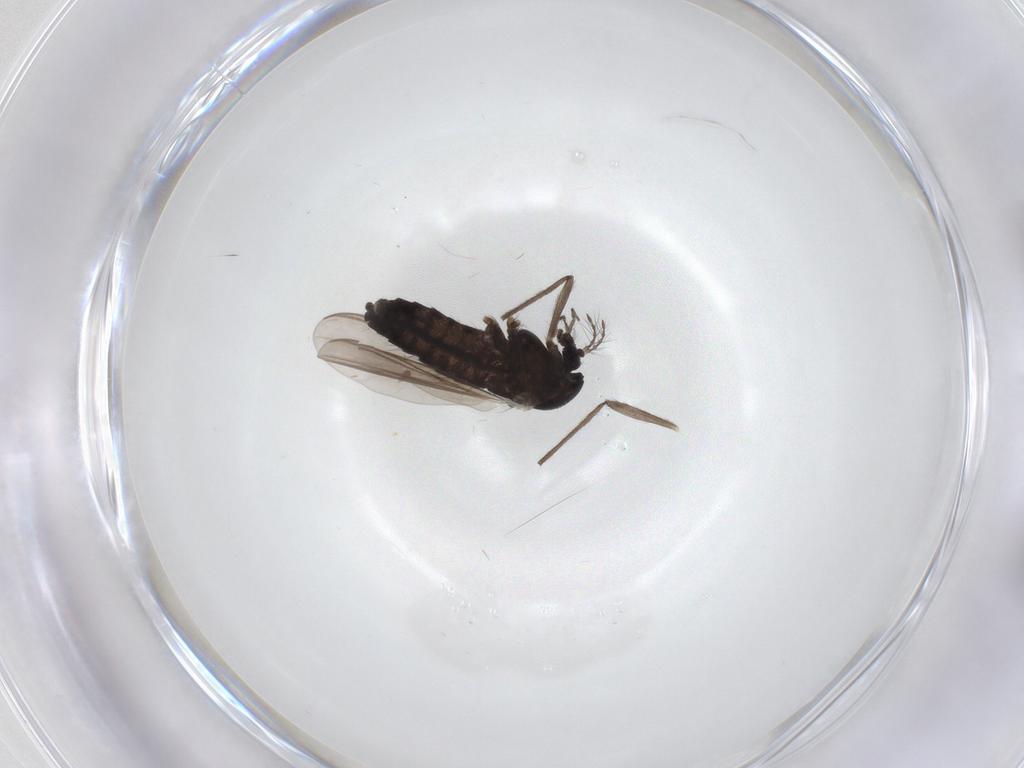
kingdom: Animalia
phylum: Arthropoda
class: Insecta
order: Diptera
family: Chironomidae
